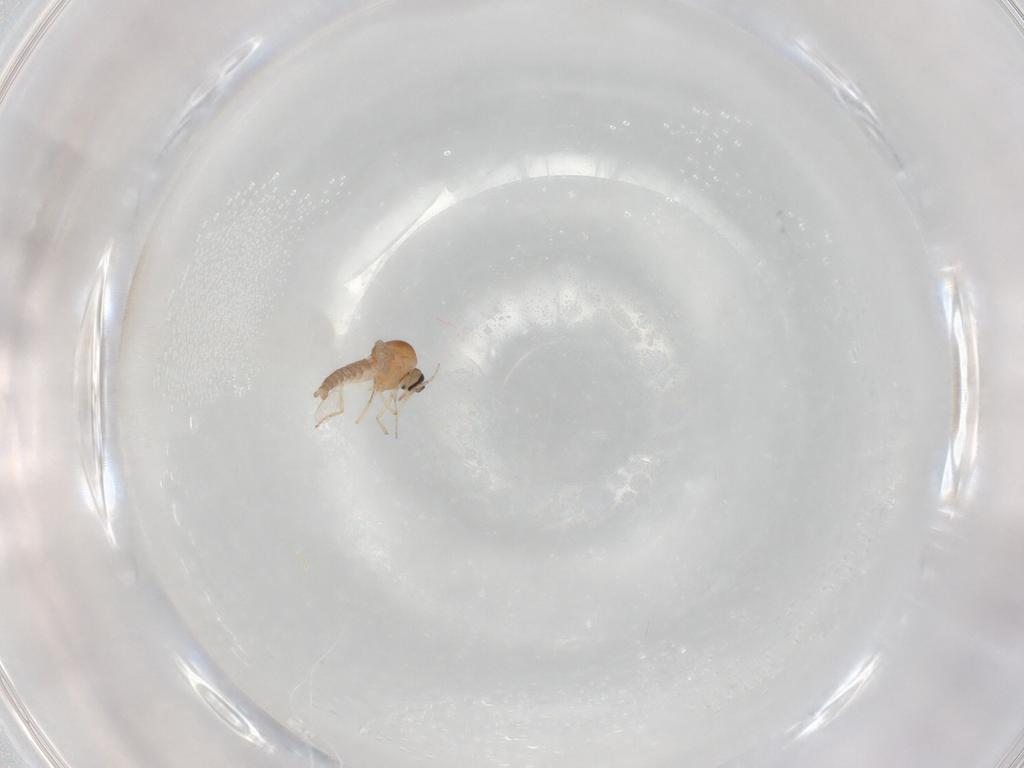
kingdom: Animalia
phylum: Arthropoda
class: Insecta
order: Diptera
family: Ceratopogonidae
